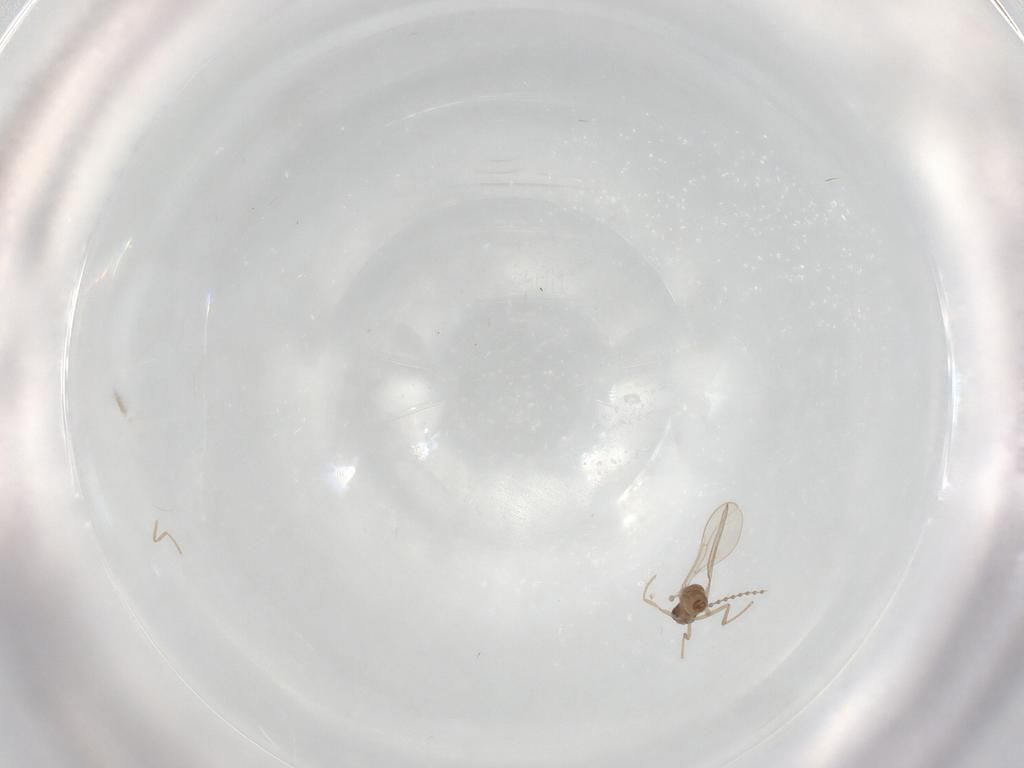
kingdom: Animalia
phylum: Arthropoda
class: Insecta
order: Diptera
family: Cecidomyiidae
